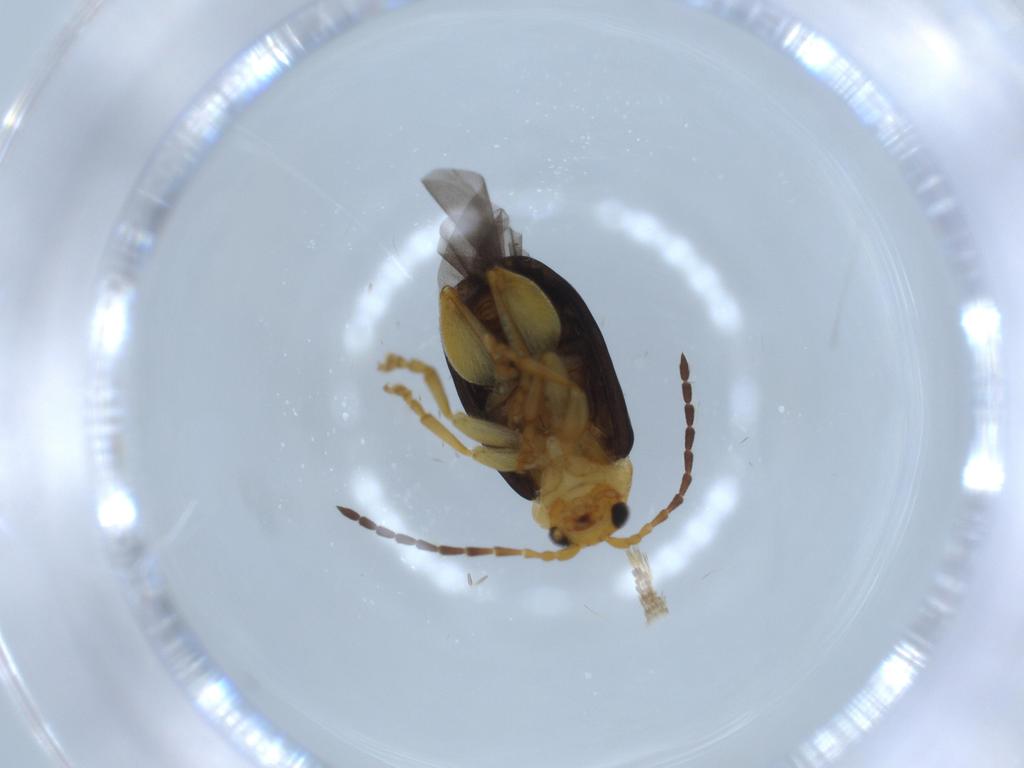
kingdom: Animalia
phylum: Arthropoda
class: Insecta
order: Coleoptera
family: Chrysomelidae
